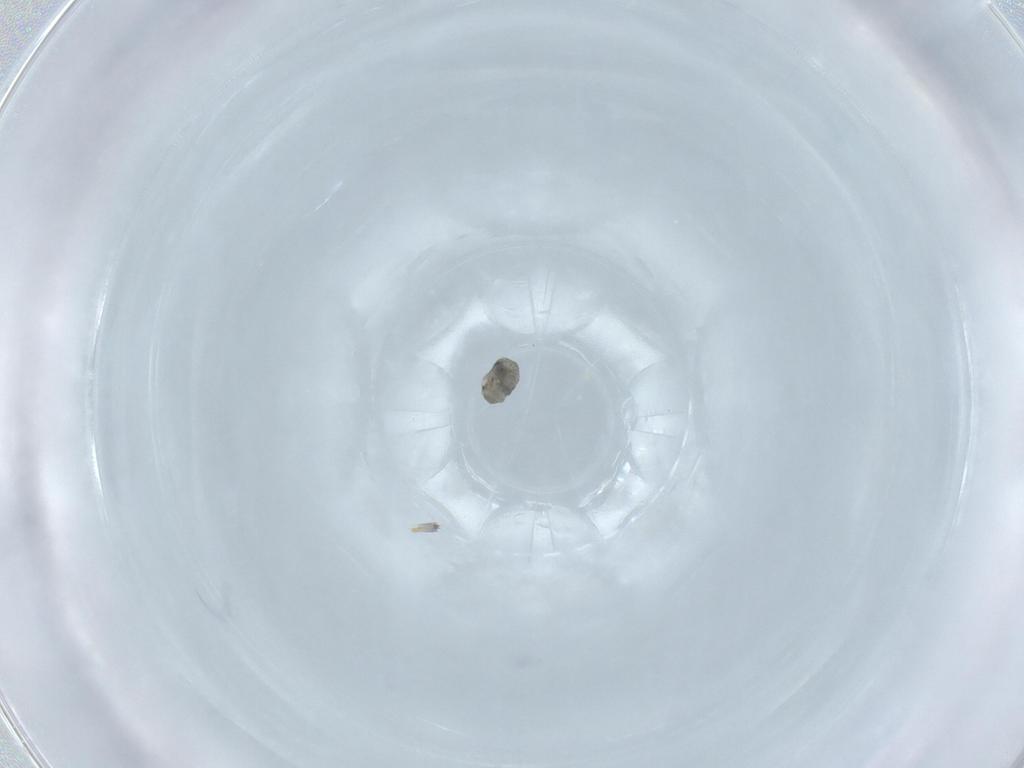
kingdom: Animalia
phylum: Arthropoda
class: Insecta
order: Diptera
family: Cecidomyiidae
